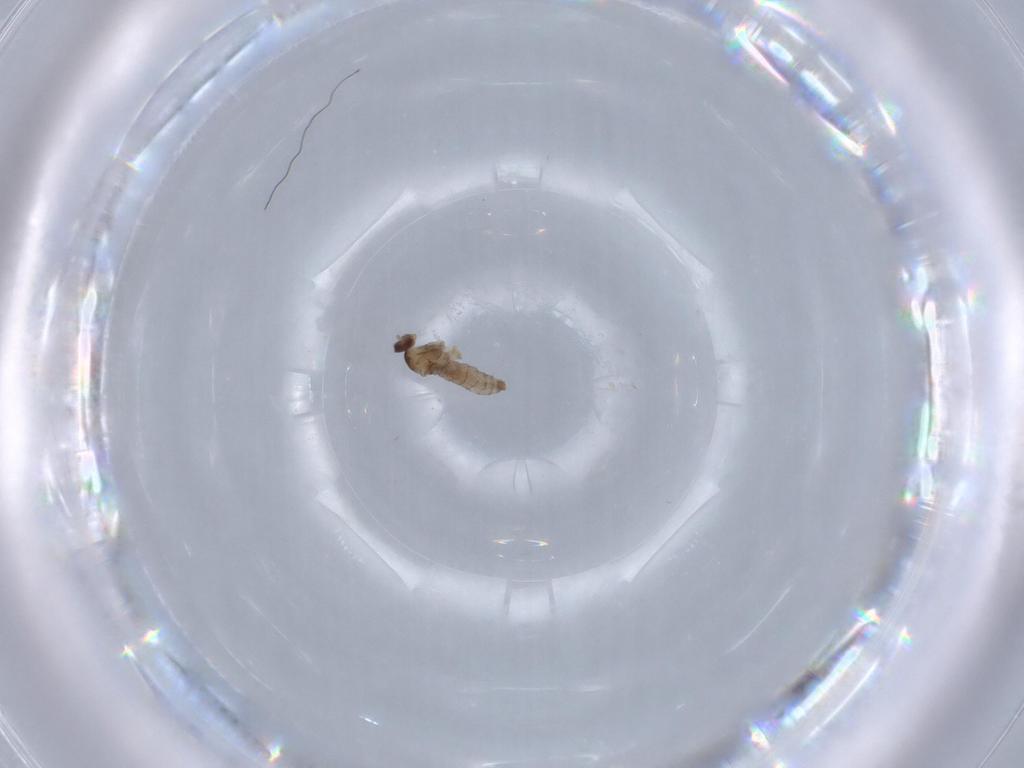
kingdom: Animalia
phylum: Arthropoda
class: Insecta
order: Diptera
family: Cecidomyiidae
